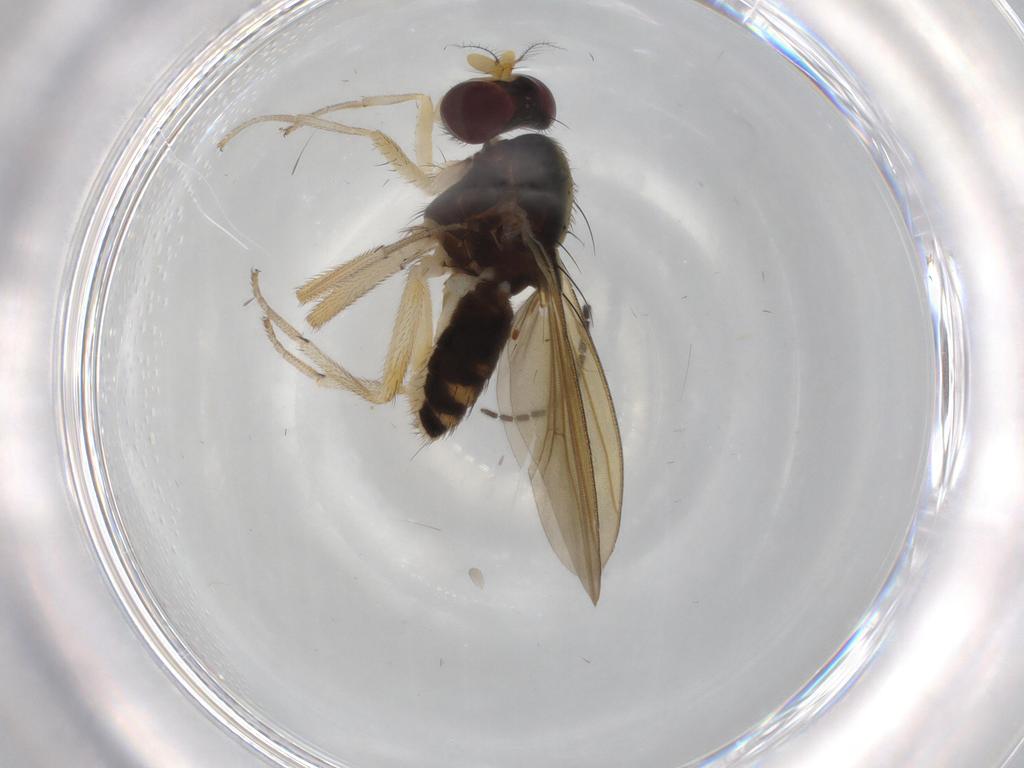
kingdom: Animalia
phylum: Arthropoda
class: Insecta
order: Diptera
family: Lauxaniidae
